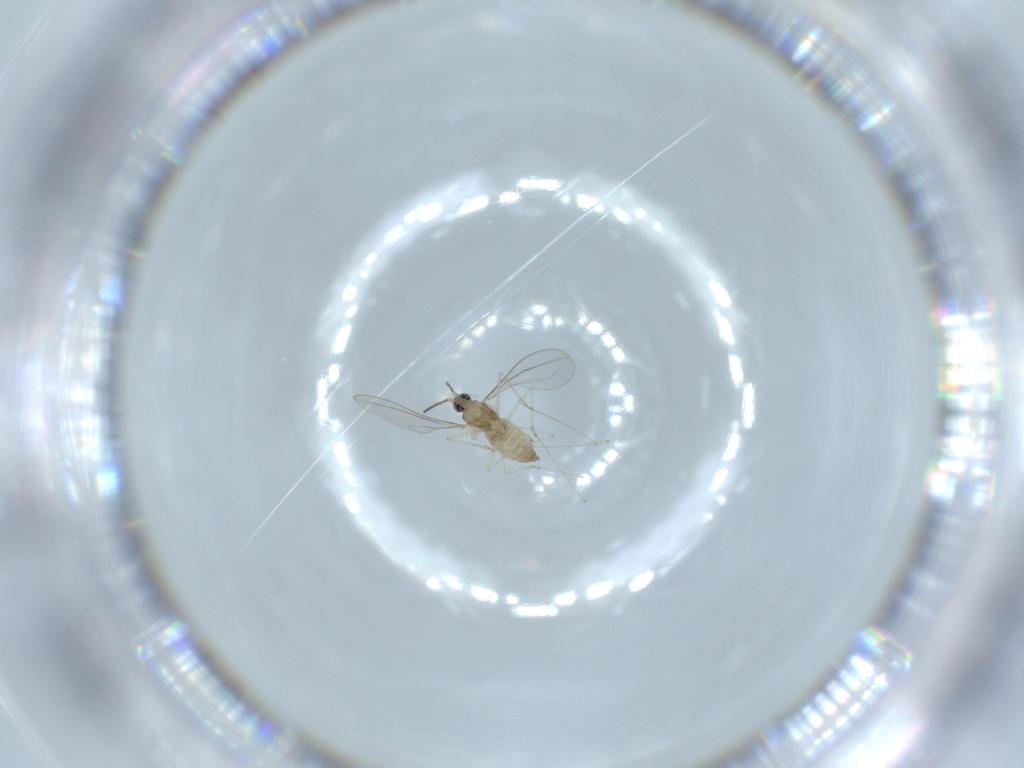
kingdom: Animalia
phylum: Arthropoda
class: Insecta
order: Diptera
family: Cecidomyiidae
